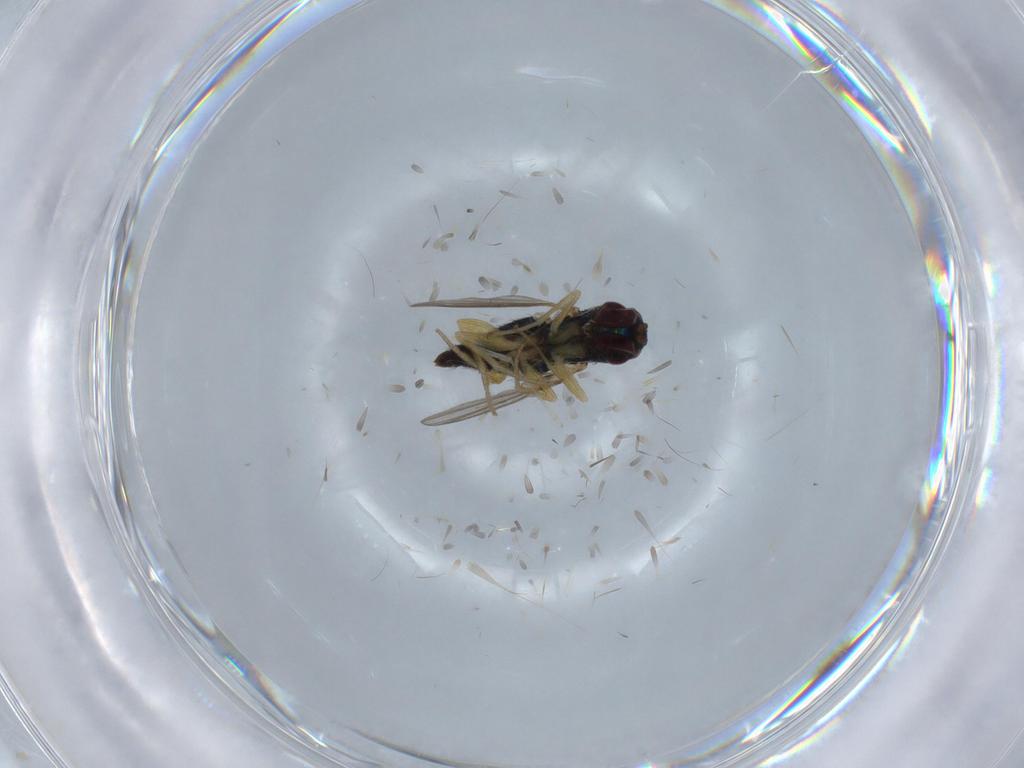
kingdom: Animalia
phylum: Arthropoda
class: Insecta
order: Diptera
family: Dolichopodidae
